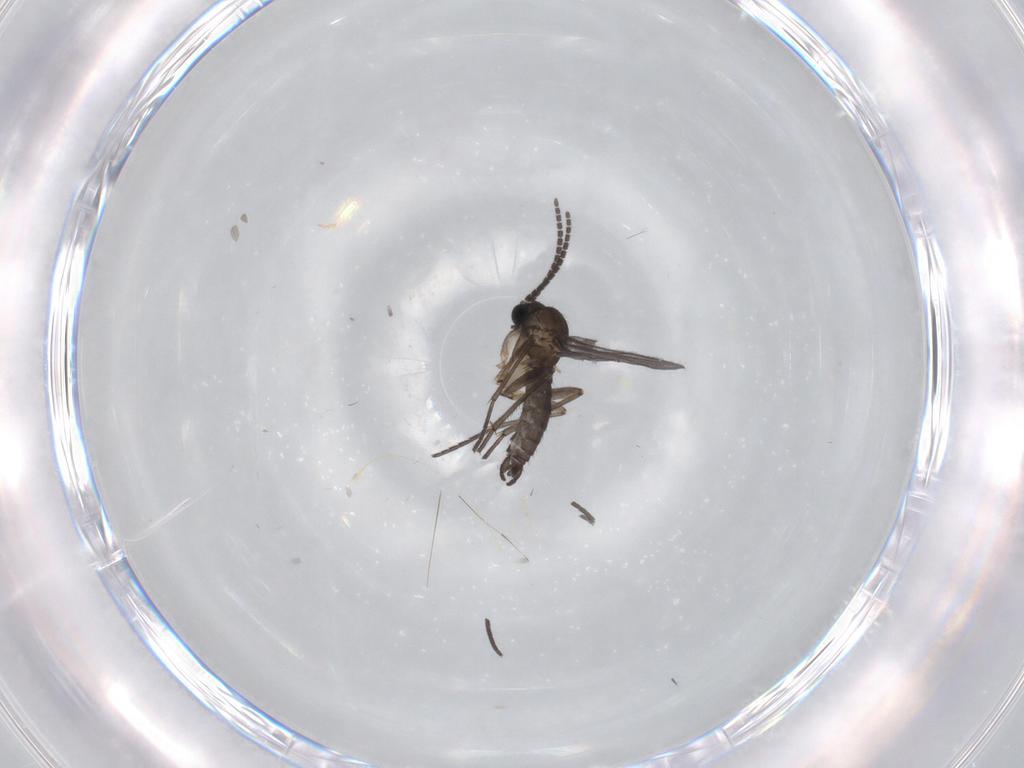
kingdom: Animalia
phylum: Arthropoda
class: Insecta
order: Diptera
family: Sciaridae
